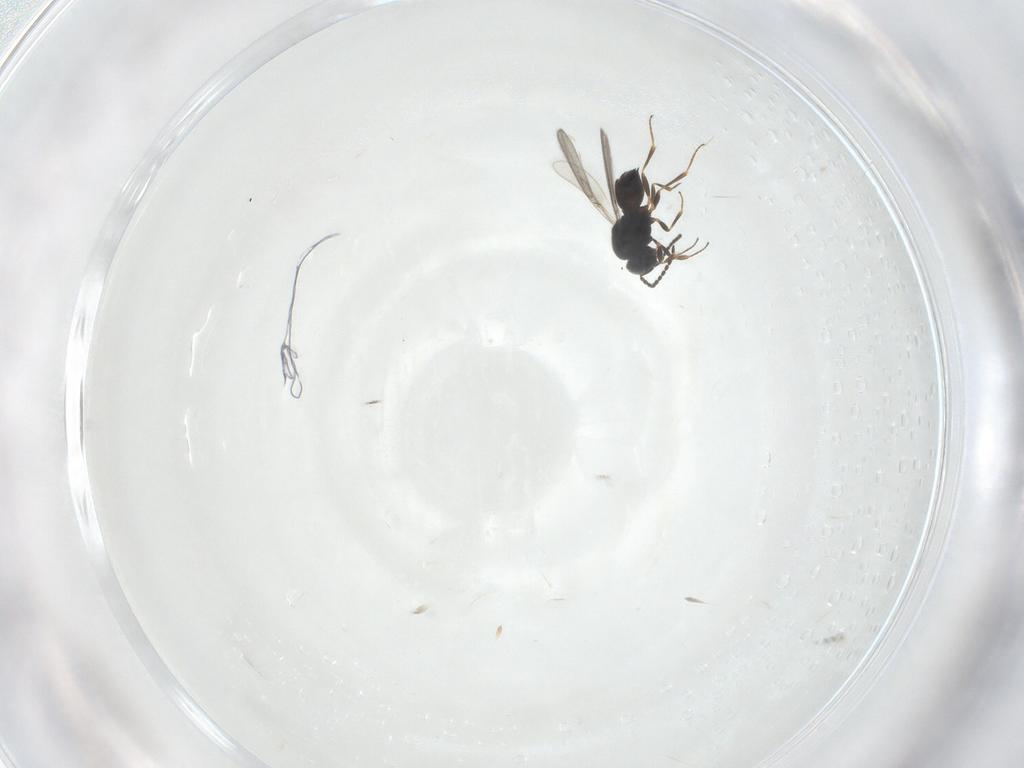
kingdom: Animalia
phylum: Arthropoda
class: Insecta
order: Hymenoptera
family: Scelionidae
